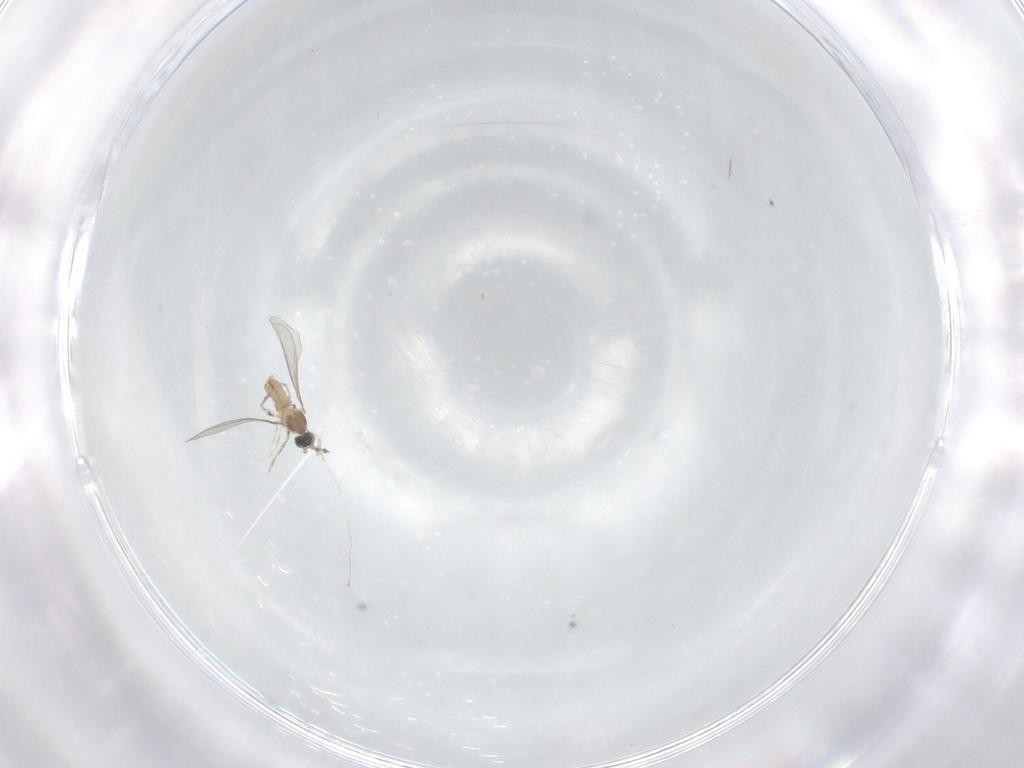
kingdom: Animalia
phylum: Arthropoda
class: Insecta
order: Diptera
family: Cecidomyiidae
